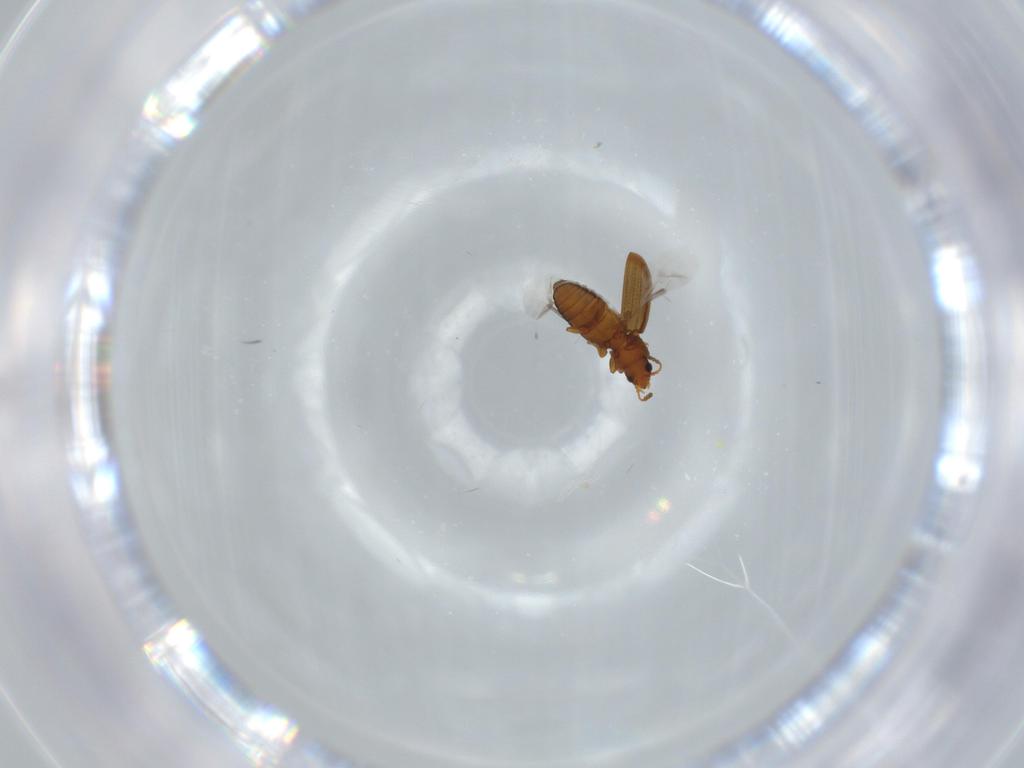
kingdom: Animalia
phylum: Arthropoda
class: Insecta
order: Coleoptera
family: Laemophloeidae
